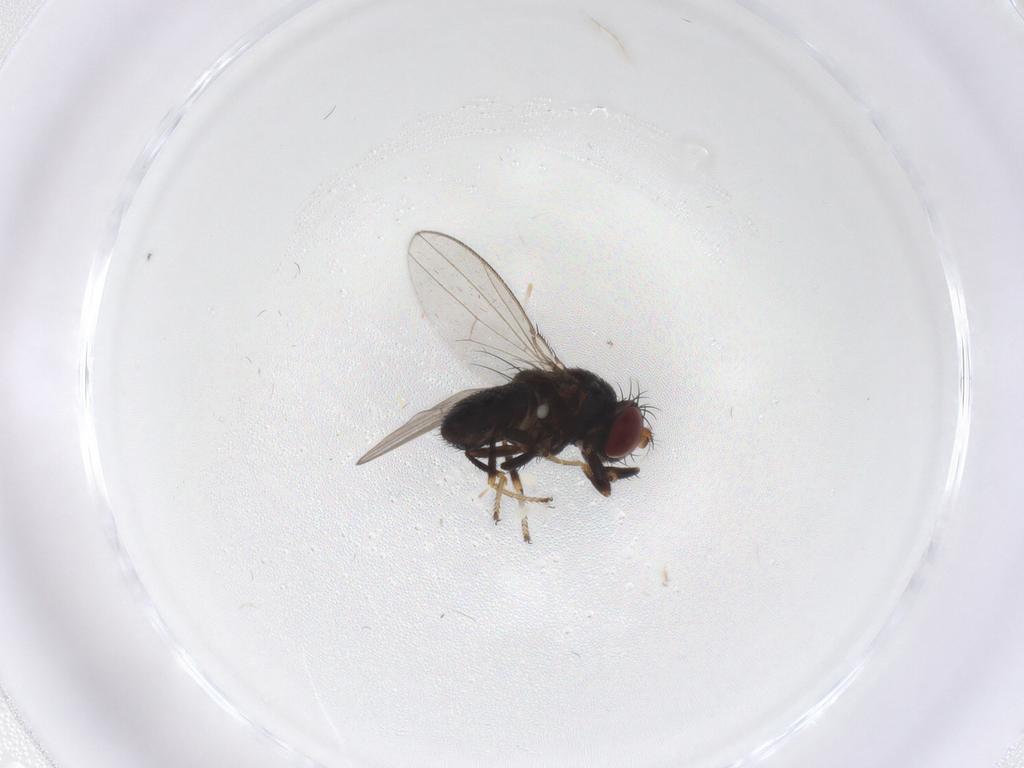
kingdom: Animalia
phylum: Arthropoda
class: Insecta
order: Diptera
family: Ephydridae
